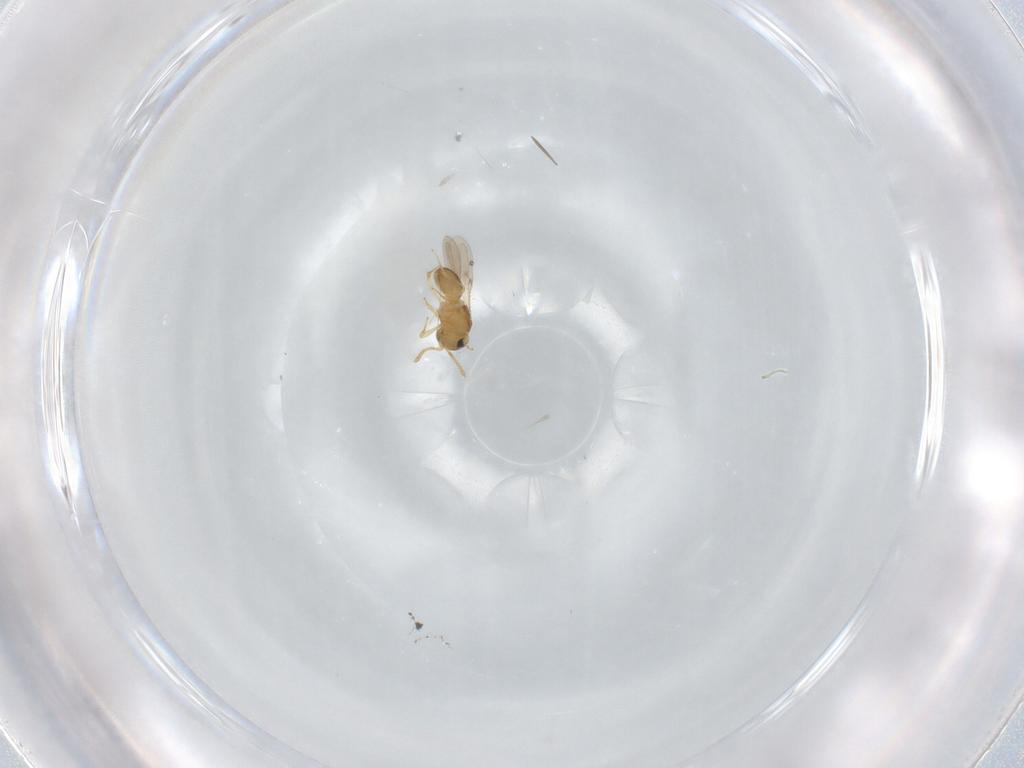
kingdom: Animalia
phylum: Arthropoda
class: Insecta
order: Hymenoptera
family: Scelionidae
